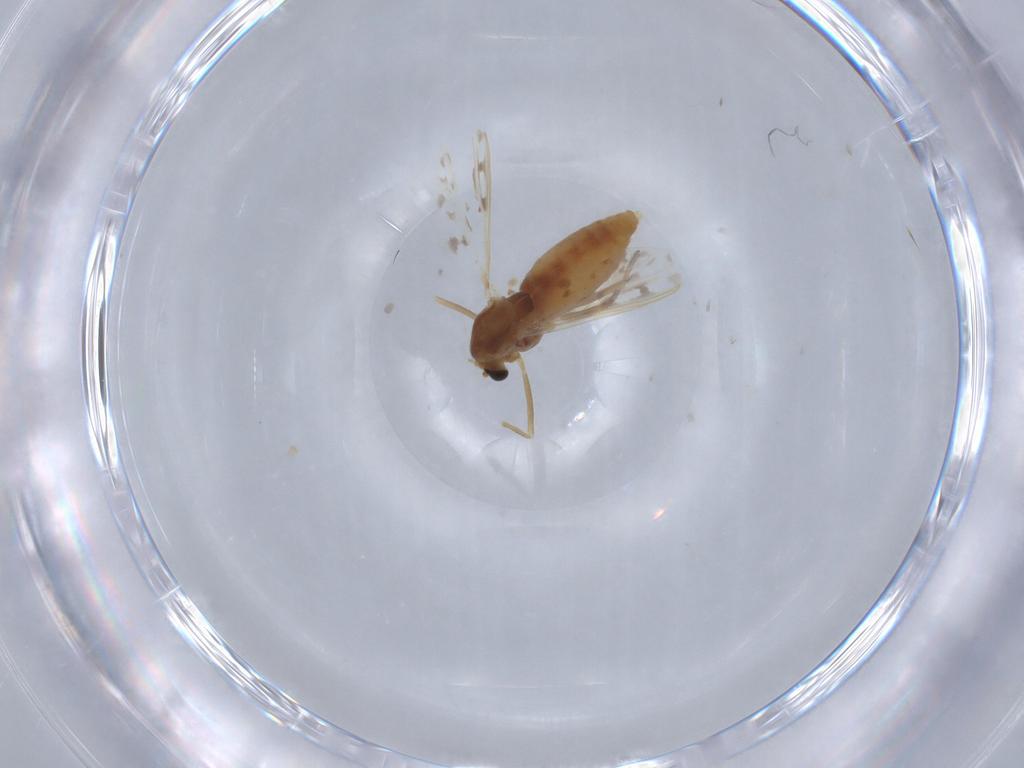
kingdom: Animalia
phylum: Arthropoda
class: Insecta
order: Diptera
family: Chironomidae
